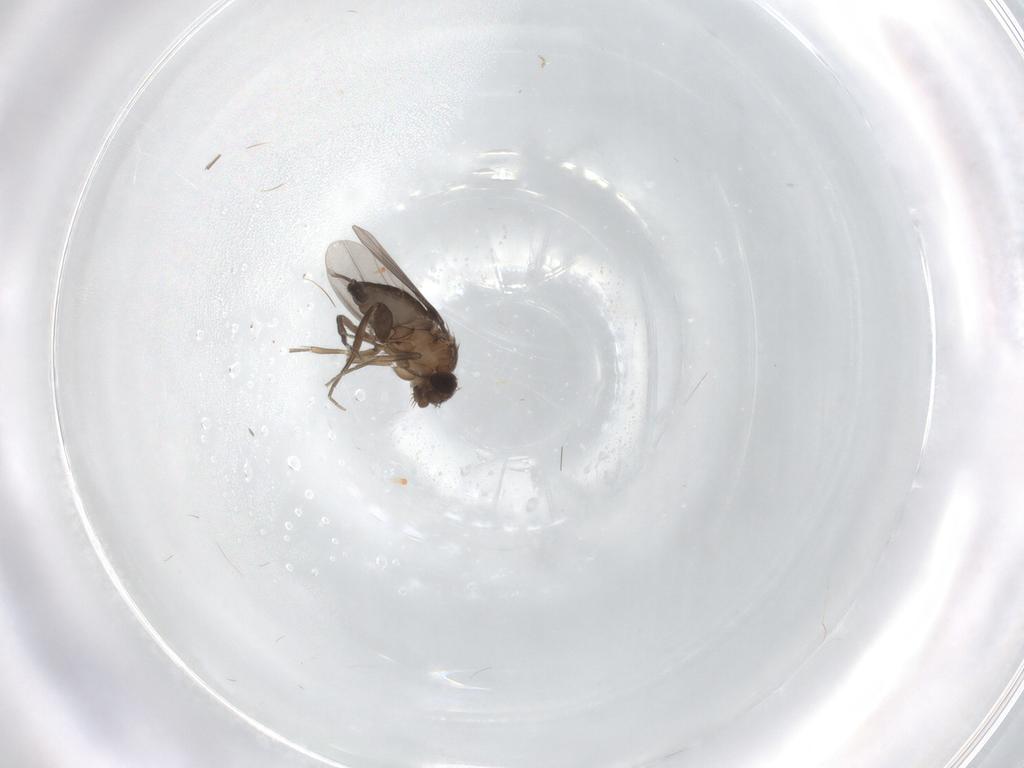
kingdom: Animalia
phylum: Arthropoda
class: Insecta
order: Diptera
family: Phoridae
